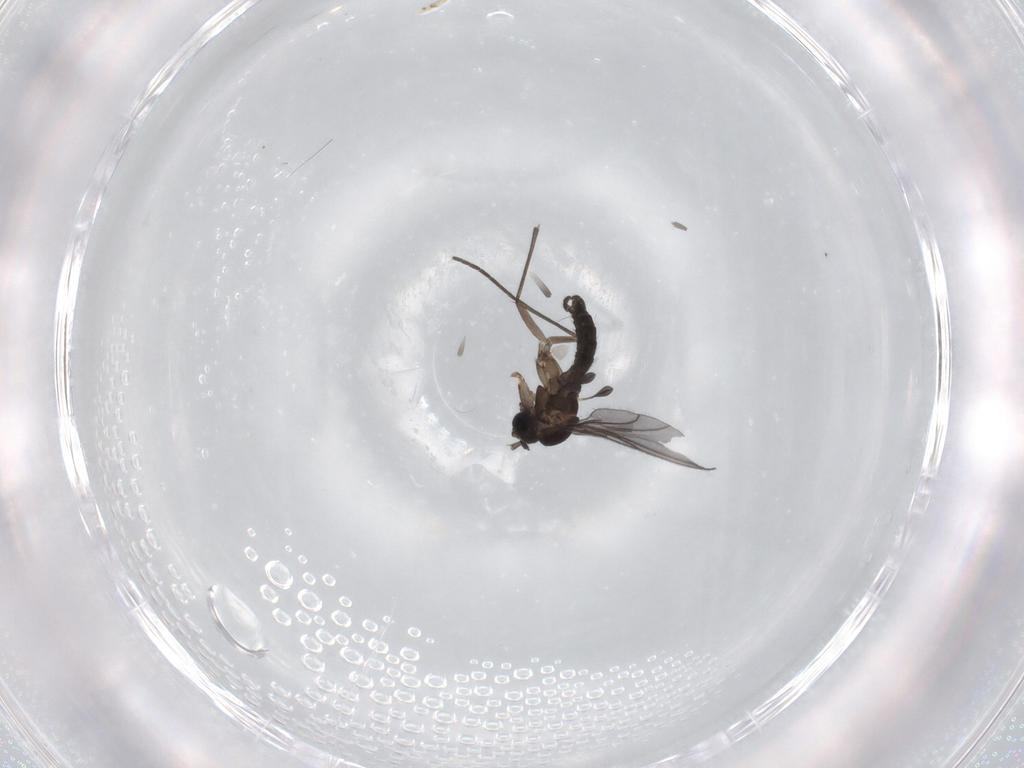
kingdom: Animalia
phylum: Arthropoda
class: Insecta
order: Diptera
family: Sciaridae
